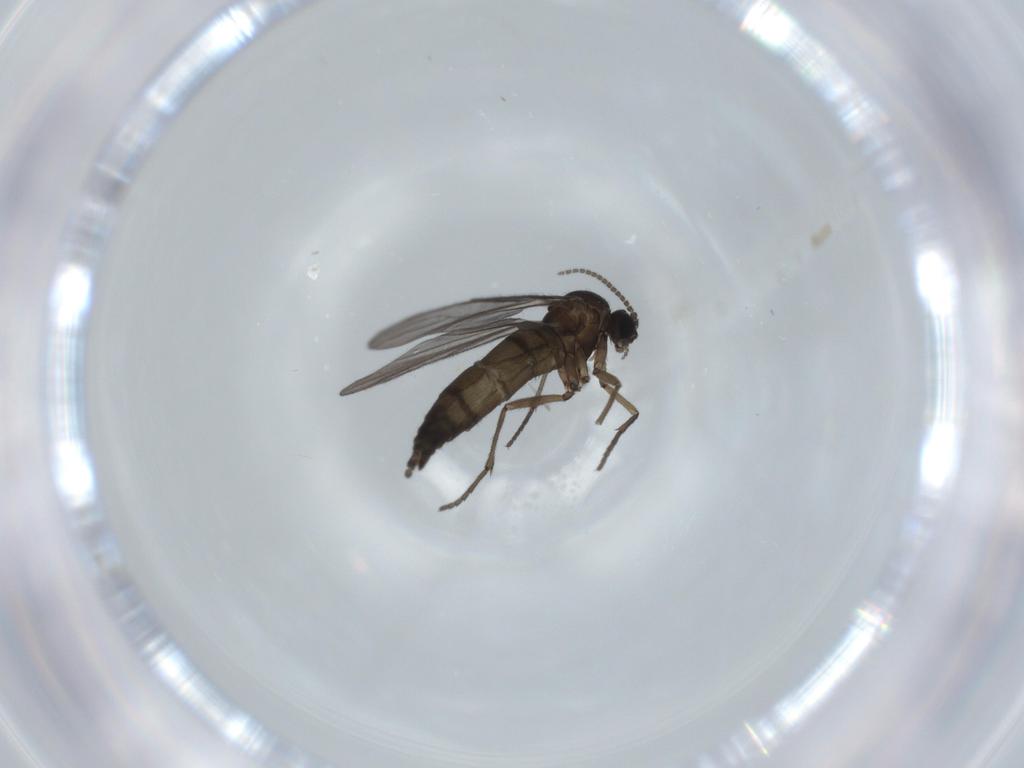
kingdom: Animalia
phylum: Arthropoda
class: Insecta
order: Diptera
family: Sciaridae
